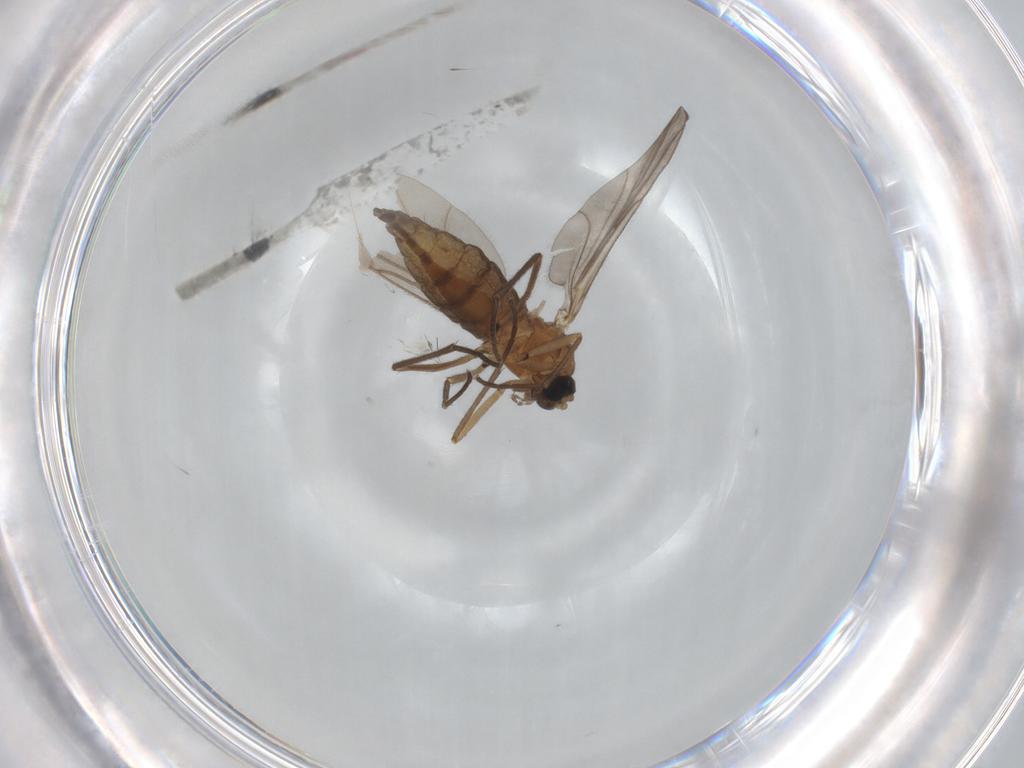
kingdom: Animalia
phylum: Arthropoda
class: Insecta
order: Diptera
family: Sciaridae
